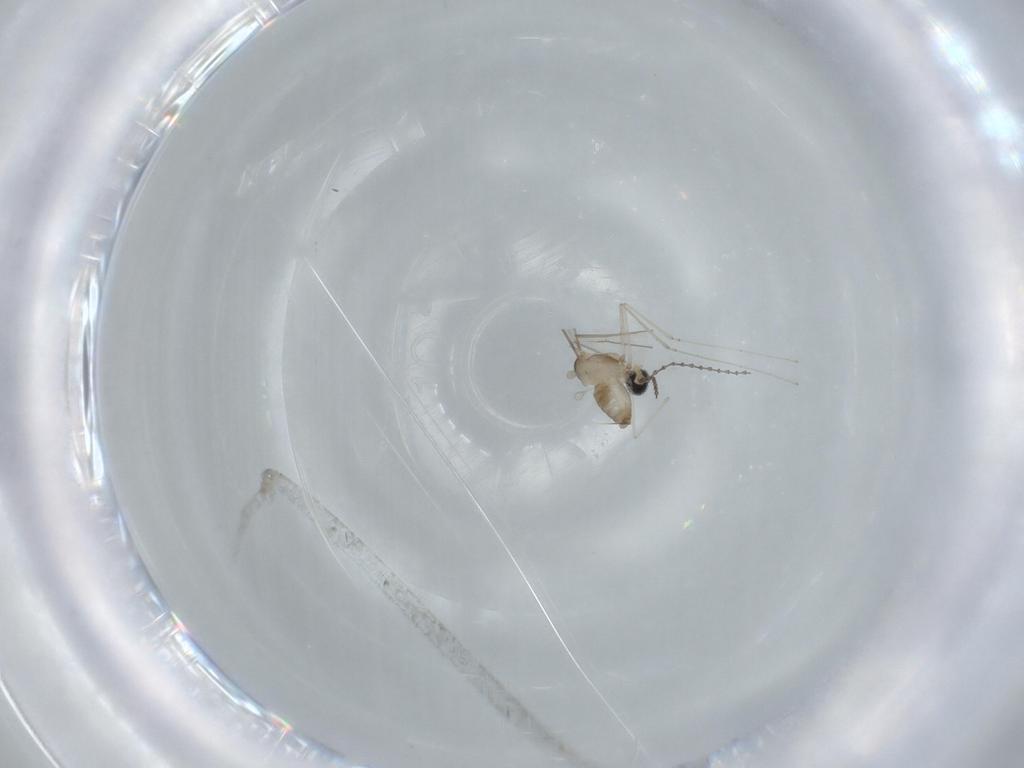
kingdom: Animalia
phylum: Arthropoda
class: Insecta
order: Diptera
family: Cecidomyiidae
